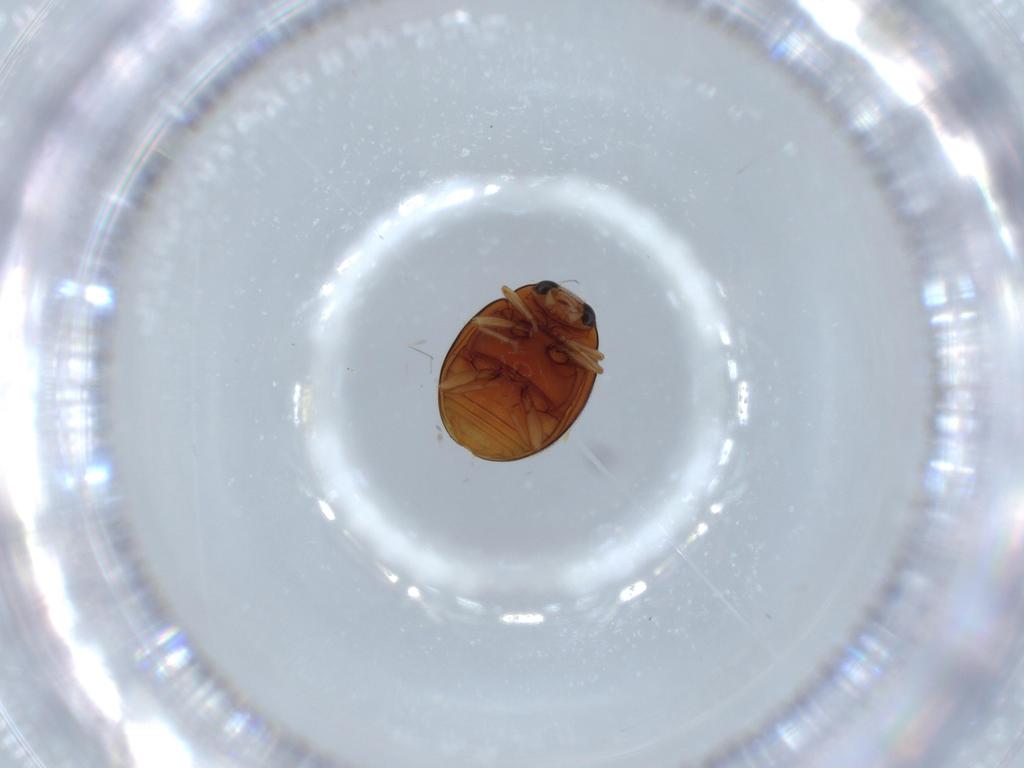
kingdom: Animalia
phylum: Arthropoda
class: Insecta
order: Coleoptera
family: Coccinellidae
